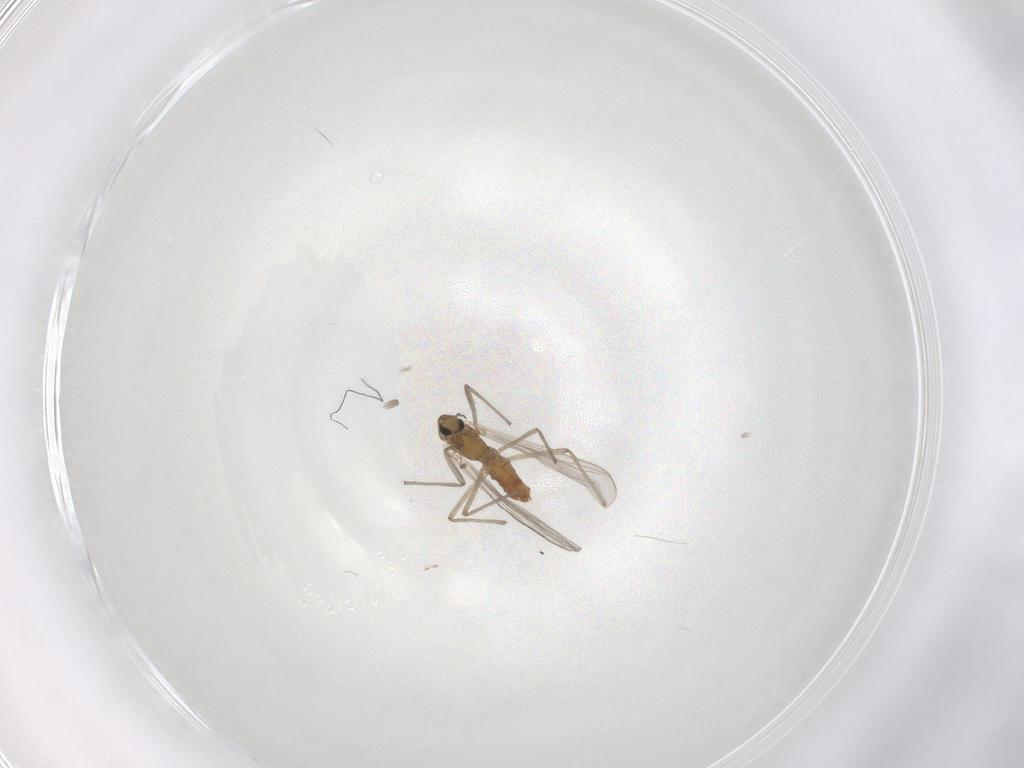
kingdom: Animalia
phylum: Arthropoda
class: Insecta
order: Diptera
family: Chironomidae
